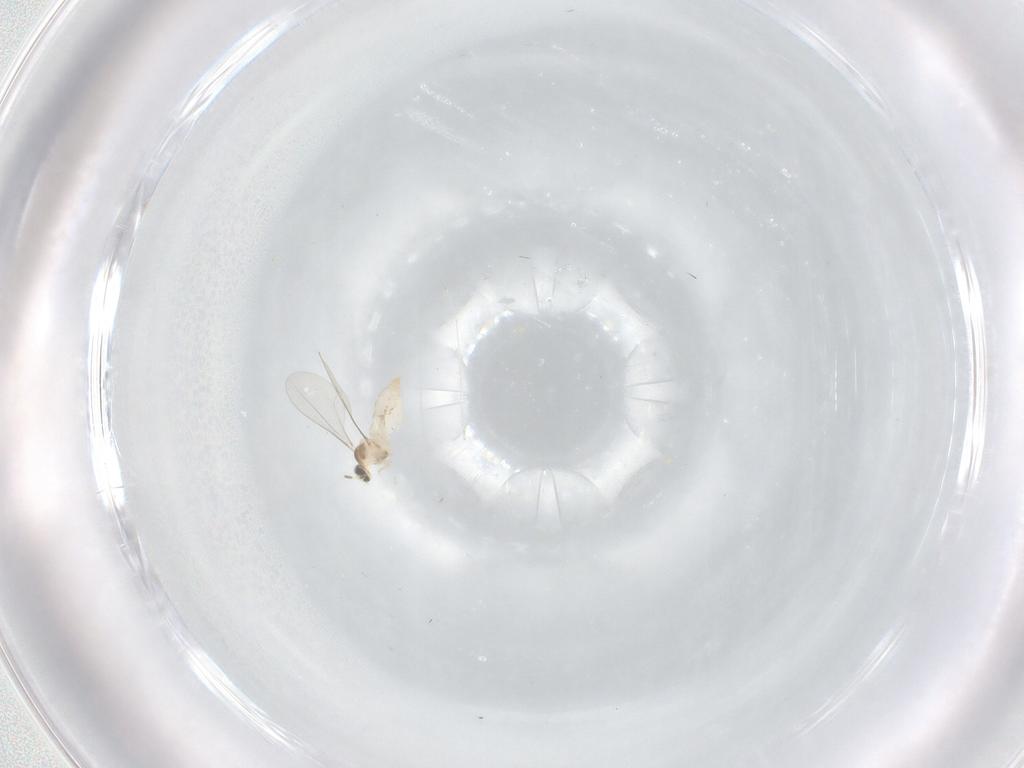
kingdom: Animalia
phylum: Arthropoda
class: Insecta
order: Diptera
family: Cecidomyiidae
